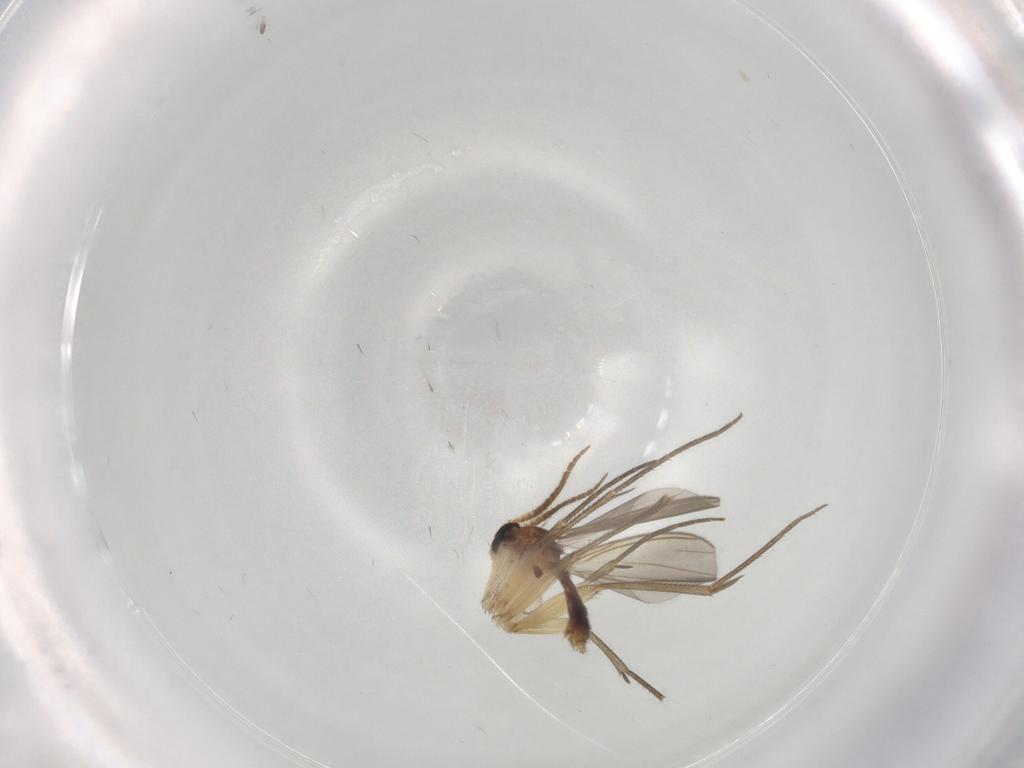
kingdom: Animalia
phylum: Arthropoda
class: Insecta
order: Diptera
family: Mycetophilidae
